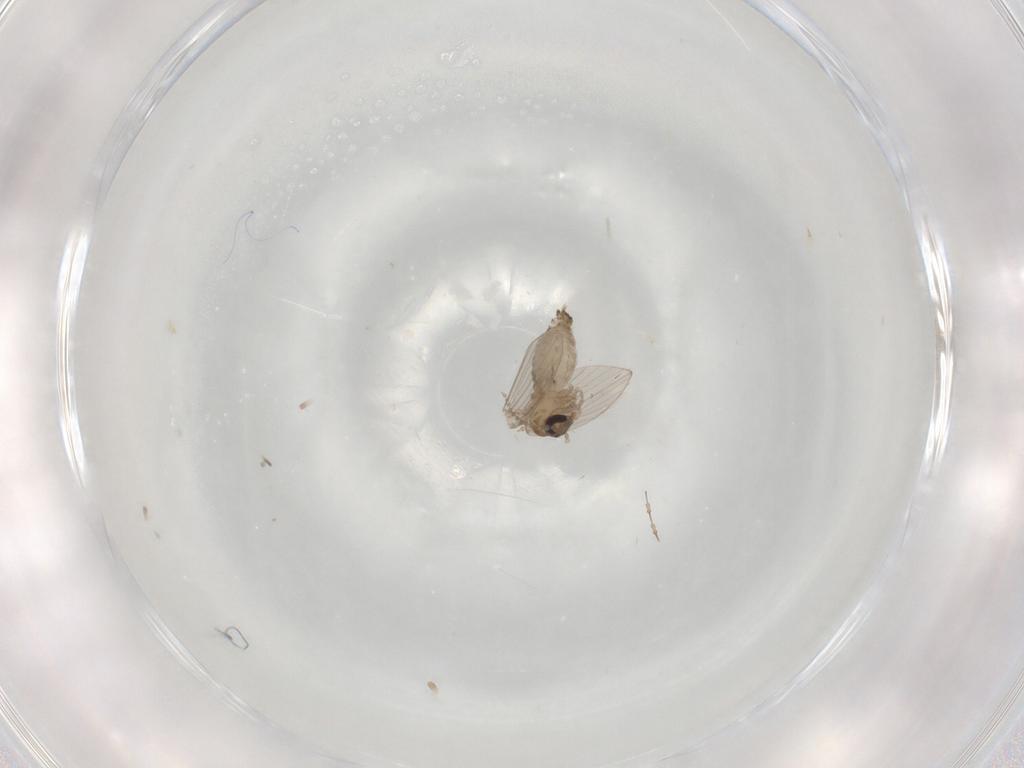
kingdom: Animalia
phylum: Arthropoda
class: Insecta
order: Diptera
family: Psychodidae
